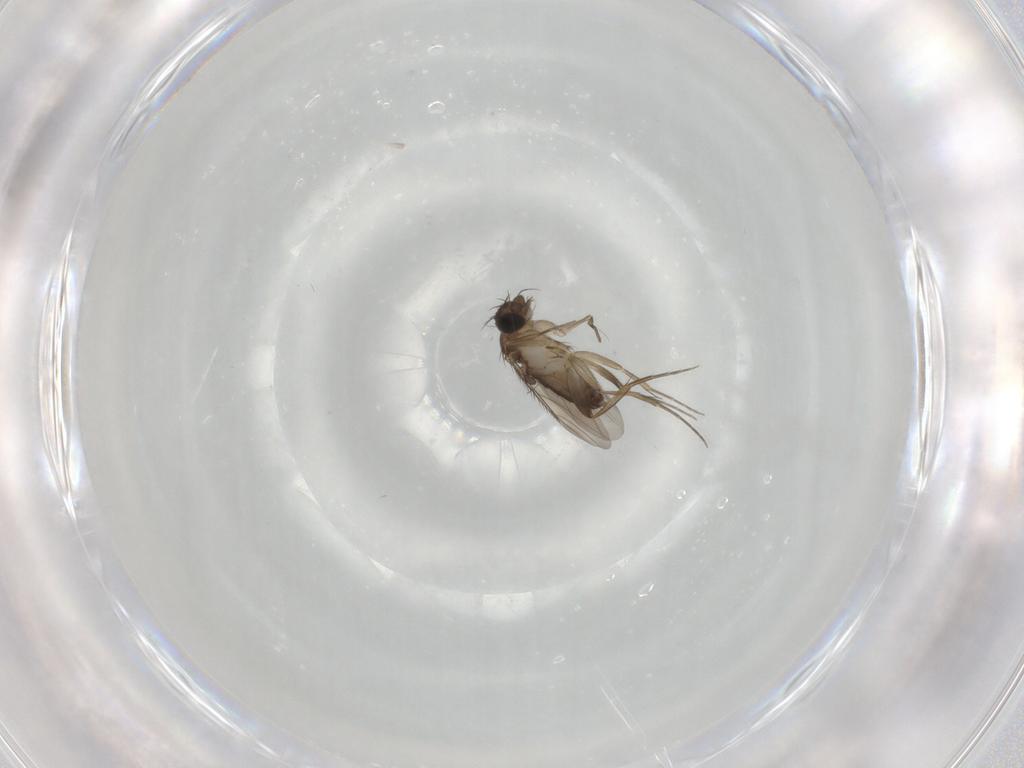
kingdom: Animalia
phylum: Arthropoda
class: Insecta
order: Diptera
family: Phoridae
